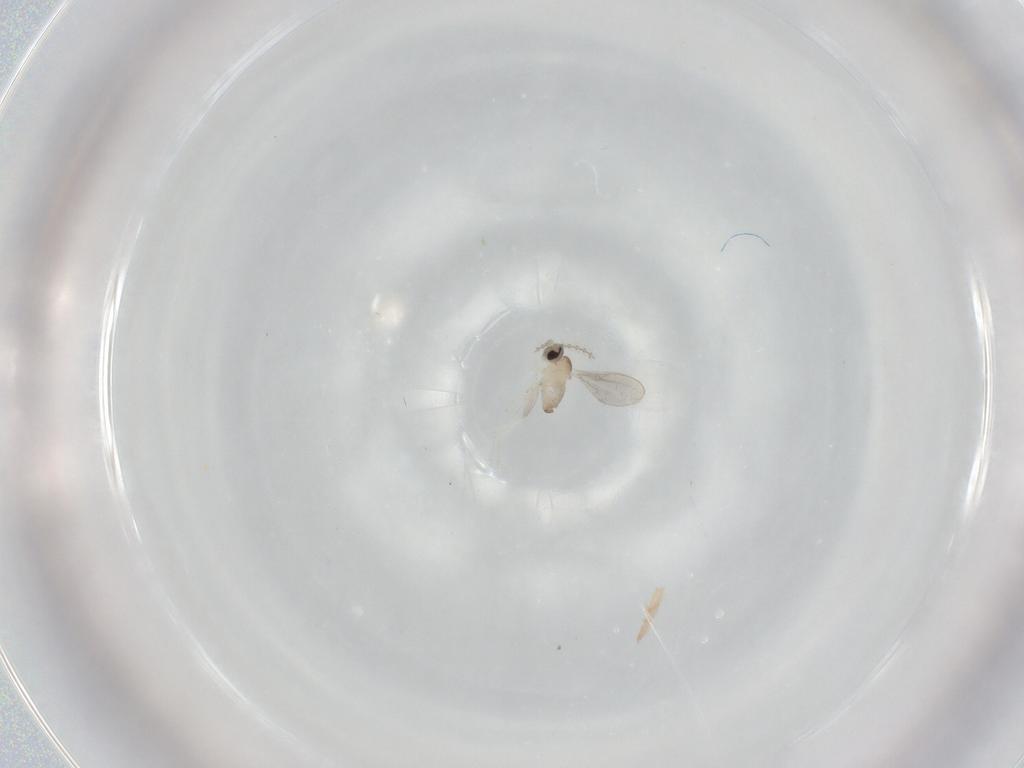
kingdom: Animalia
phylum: Arthropoda
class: Insecta
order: Diptera
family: Cecidomyiidae
